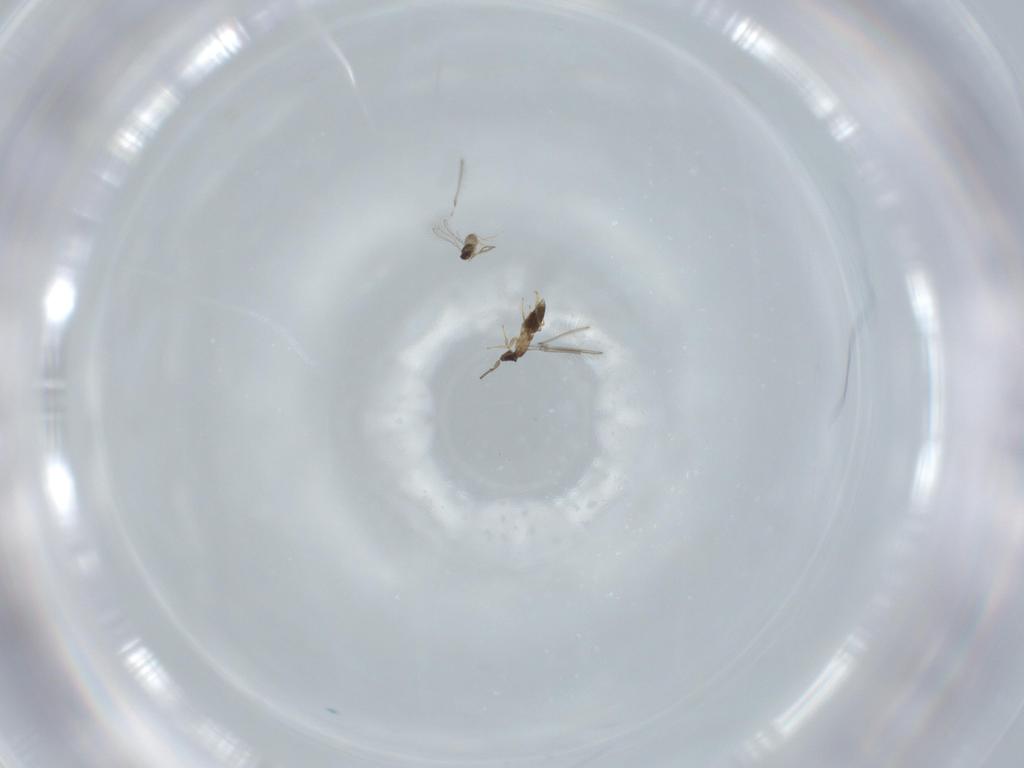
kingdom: Animalia
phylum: Arthropoda
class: Insecta
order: Hymenoptera
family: Mymaridae
